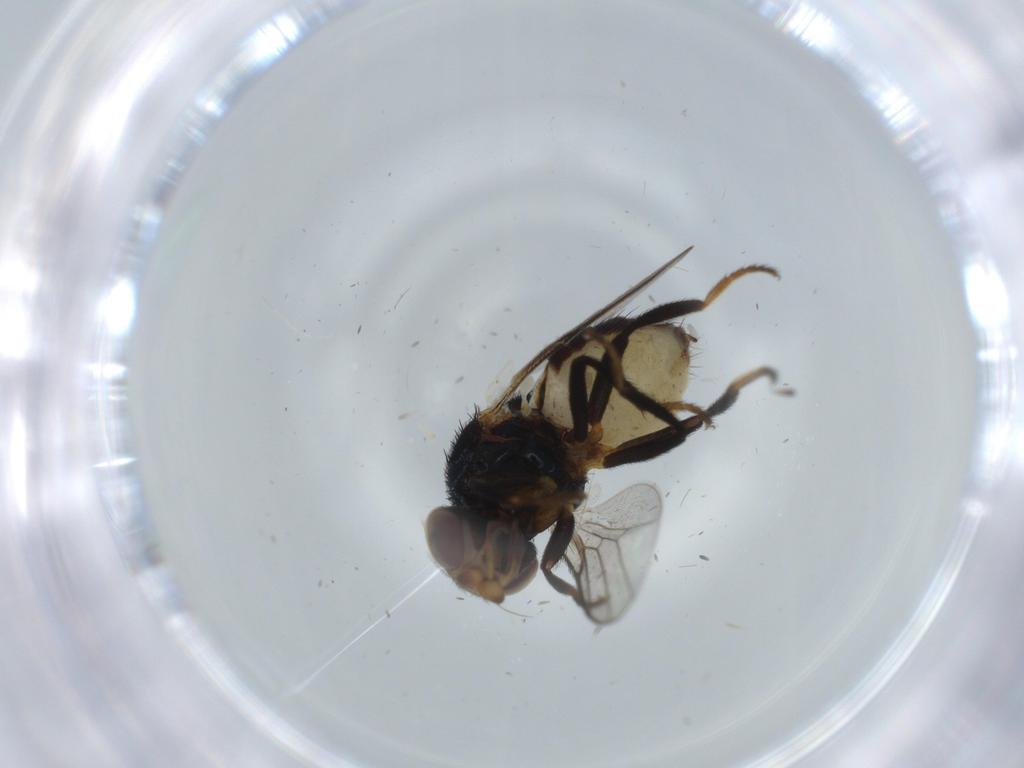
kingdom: Animalia
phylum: Arthropoda
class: Insecta
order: Diptera
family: Chloropidae
